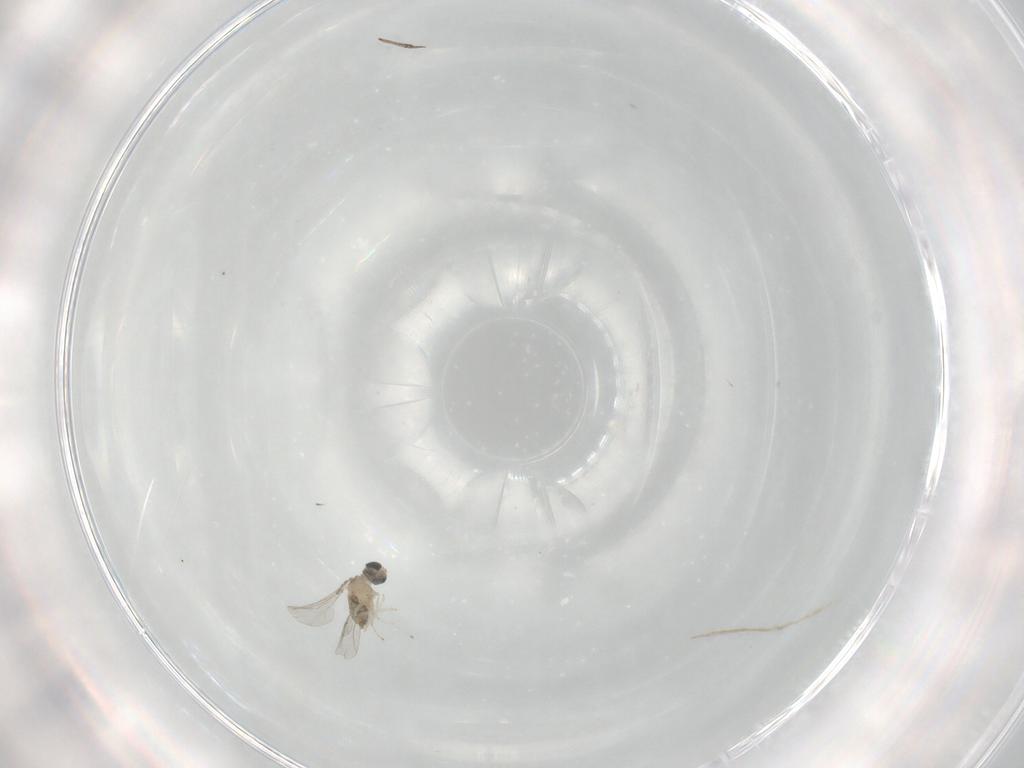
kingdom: Animalia
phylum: Arthropoda
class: Insecta
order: Diptera
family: Cecidomyiidae
